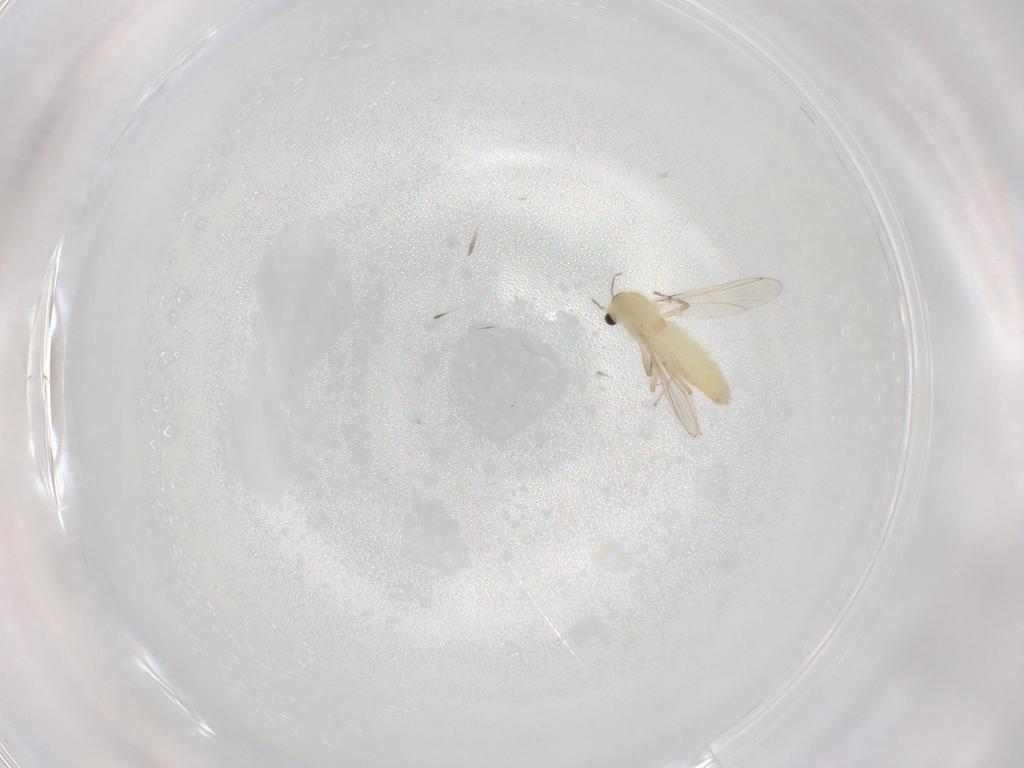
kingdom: Animalia
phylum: Arthropoda
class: Insecta
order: Diptera
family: Chironomidae
